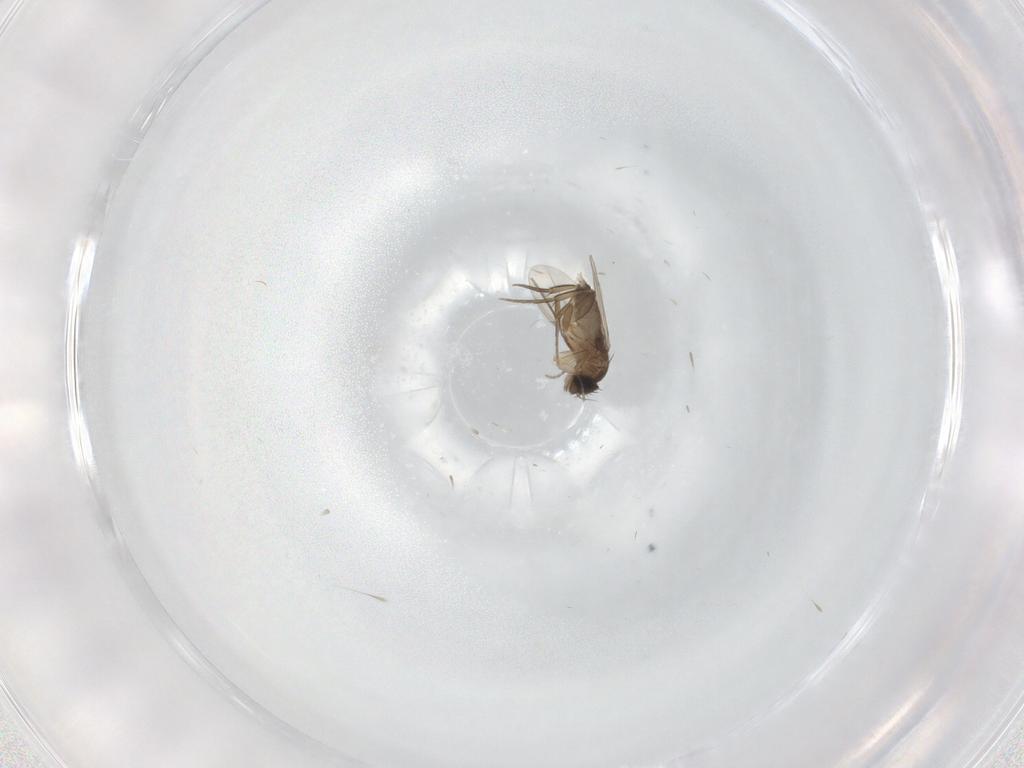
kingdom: Animalia
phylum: Arthropoda
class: Insecta
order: Diptera
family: Phoridae
